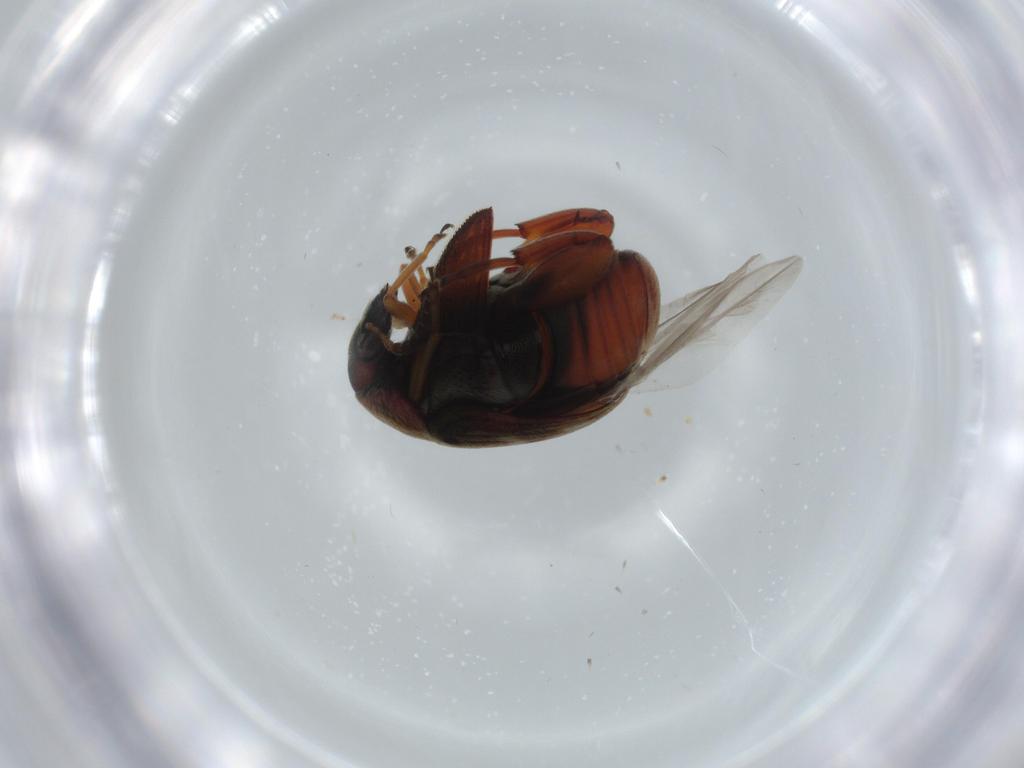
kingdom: Animalia
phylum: Arthropoda
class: Insecta
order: Coleoptera
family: Chrysomelidae
